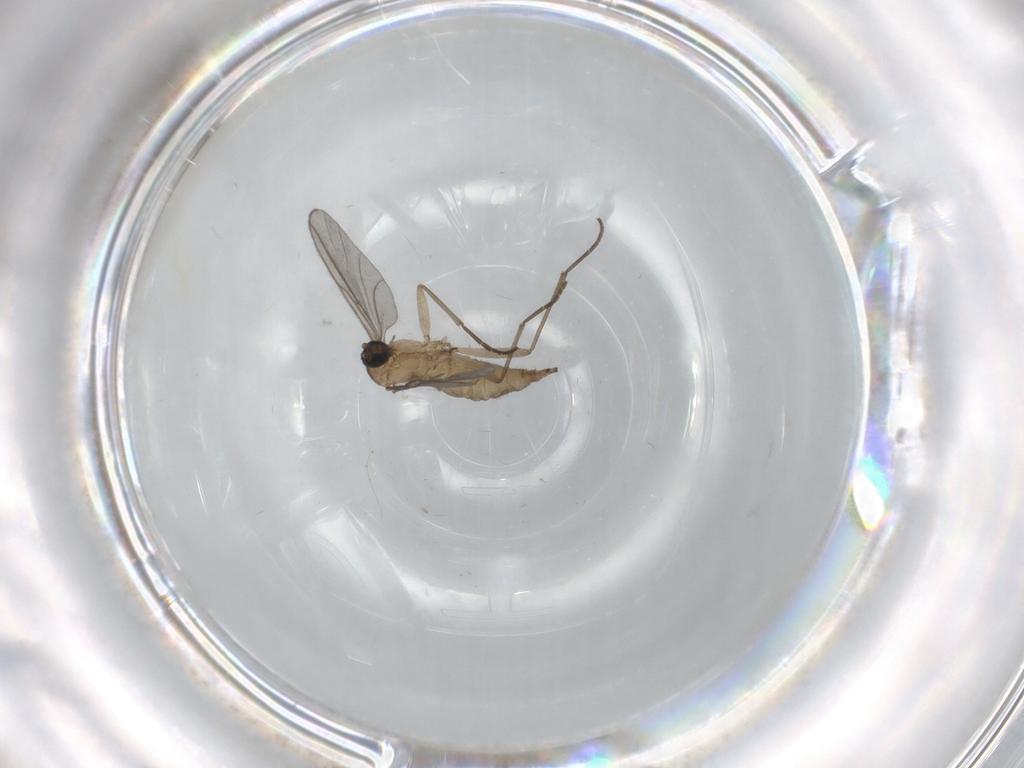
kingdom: Animalia
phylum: Arthropoda
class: Insecta
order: Diptera
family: Sciaridae
